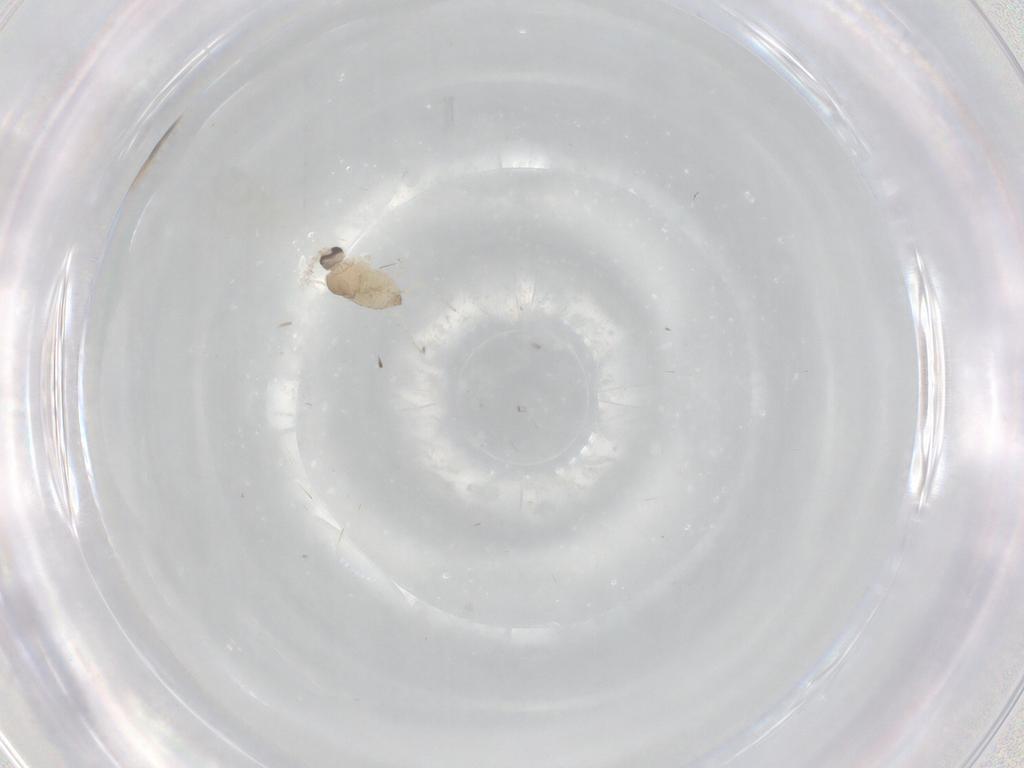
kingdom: Animalia
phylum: Arthropoda
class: Insecta
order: Diptera
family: Cecidomyiidae
